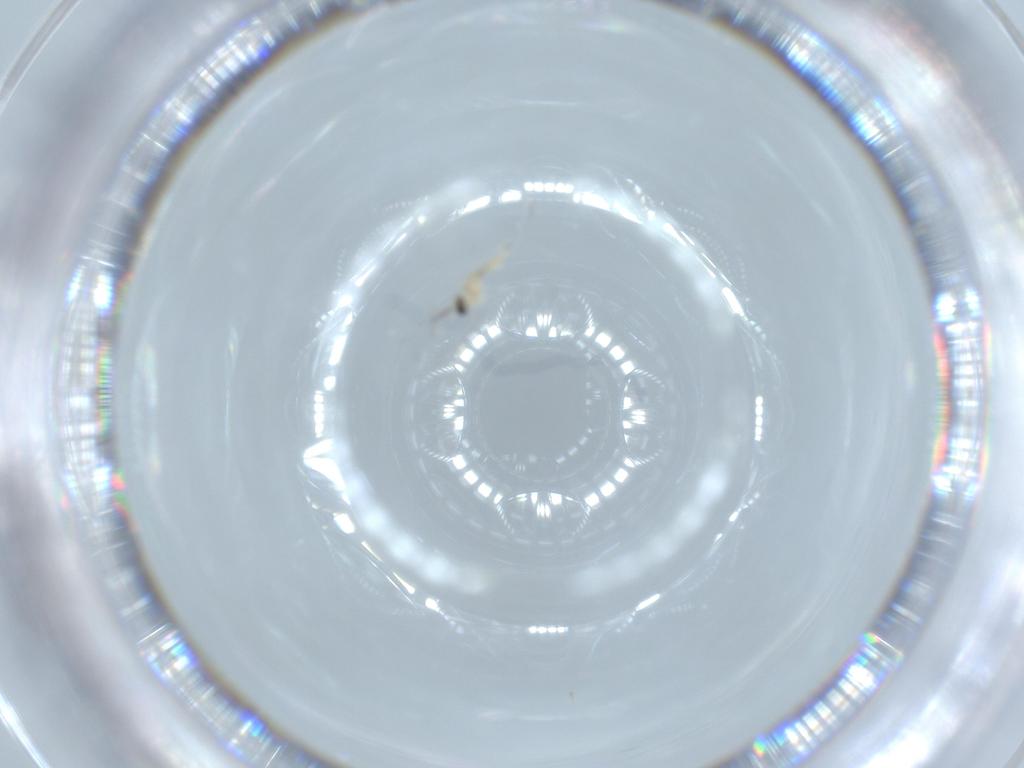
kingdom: Animalia
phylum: Arthropoda
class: Insecta
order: Diptera
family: Cecidomyiidae
